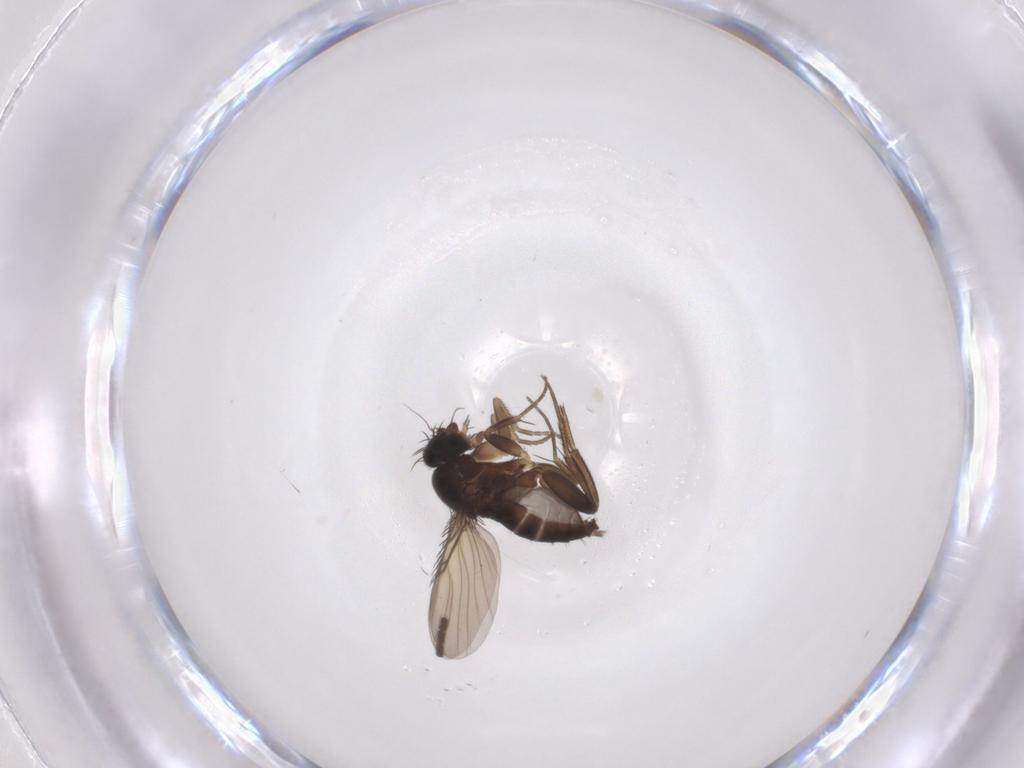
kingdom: Animalia
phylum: Arthropoda
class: Insecta
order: Diptera
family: Phoridae
